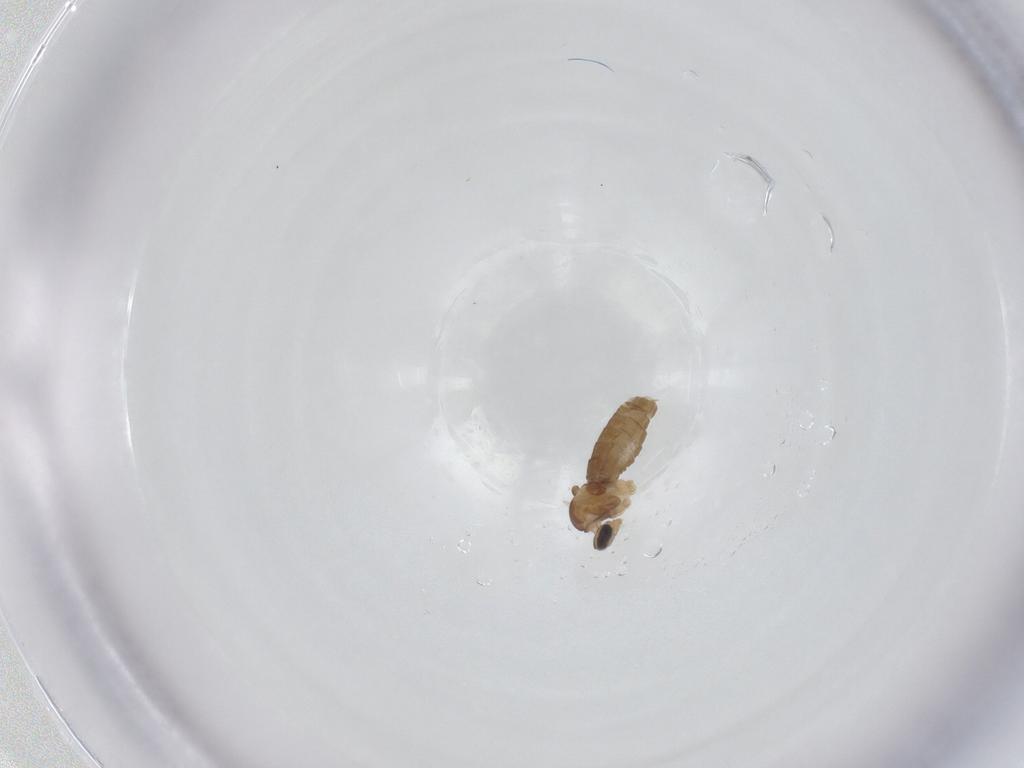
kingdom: Animalia
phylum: Arthropoda
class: Insecta
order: Diptera
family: Cecidomyiidae
